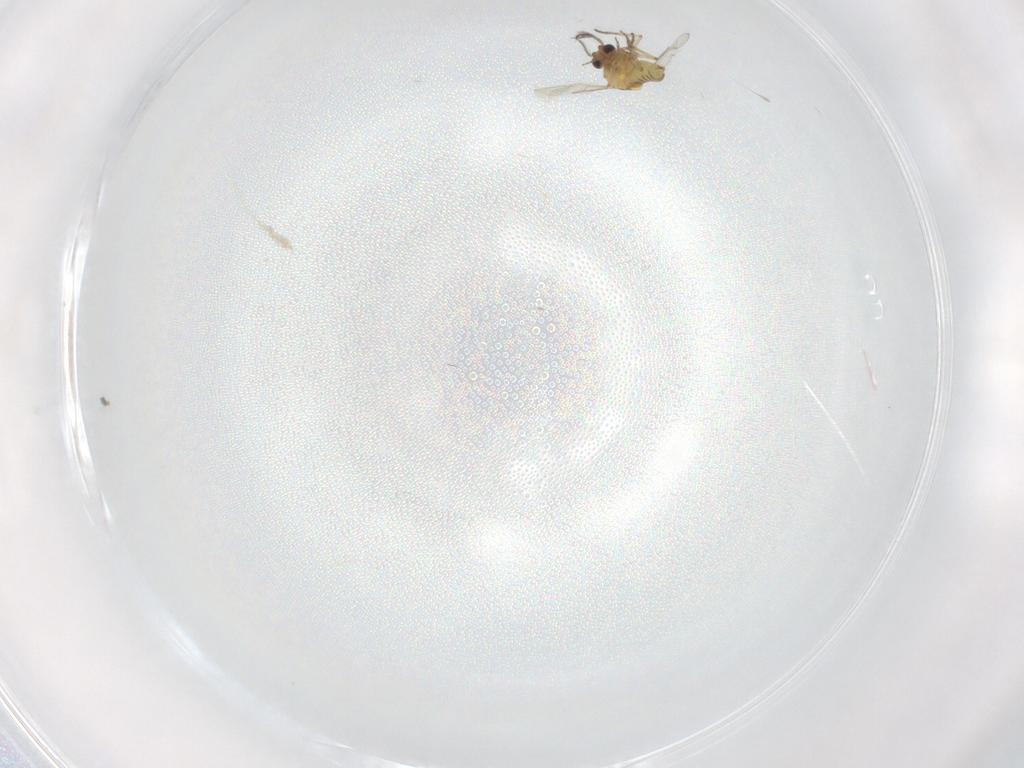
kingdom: Animalia
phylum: Arthropoda
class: Insecta
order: Diptera
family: Ceratopogonidae
